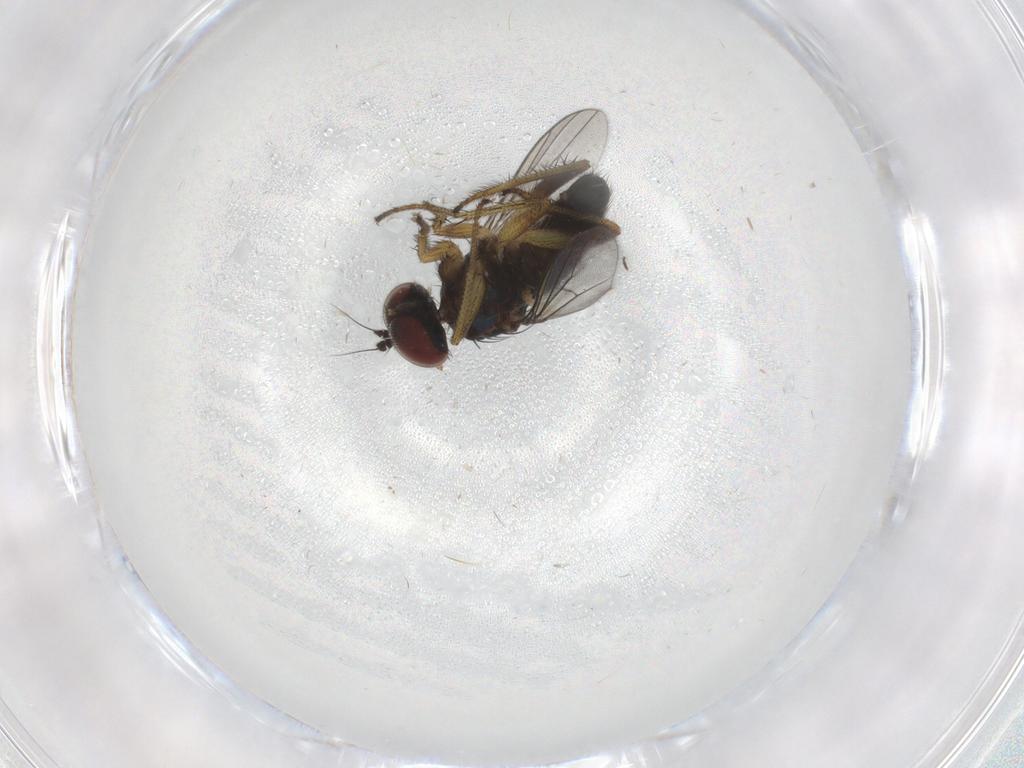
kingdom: Animalia
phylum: Arthropoda
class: Insecta
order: Diptera
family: Dolichopodidae
